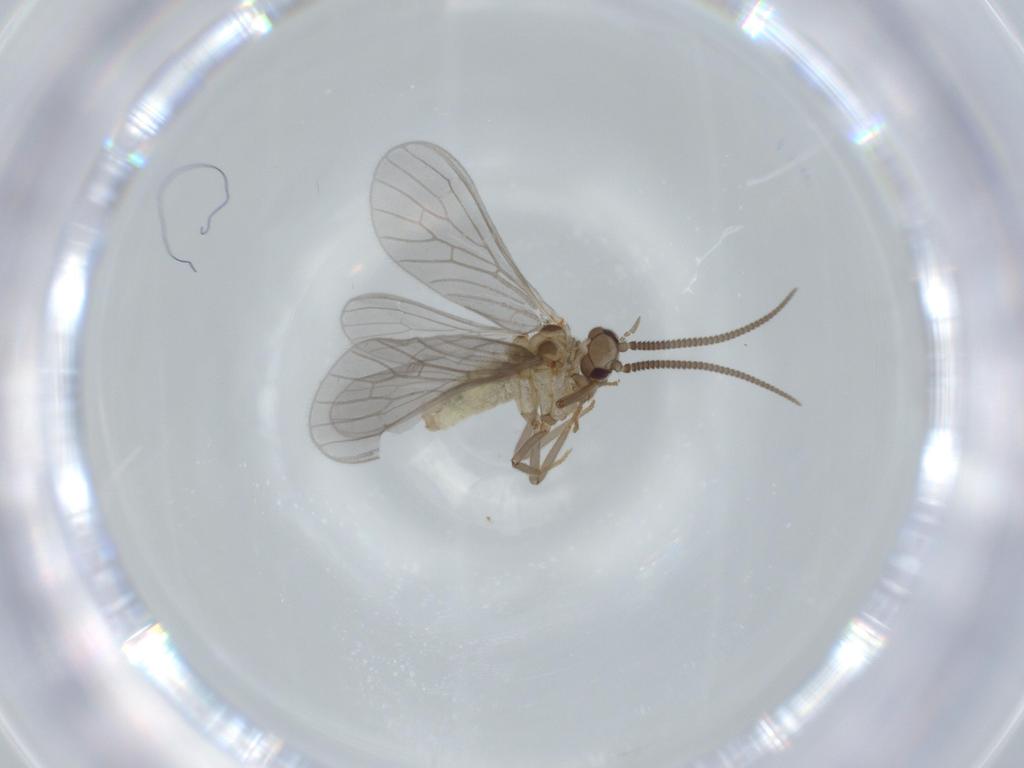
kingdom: Animalia
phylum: Arthropoda
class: Insecta
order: Neuroptera
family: Coniopterygidae
